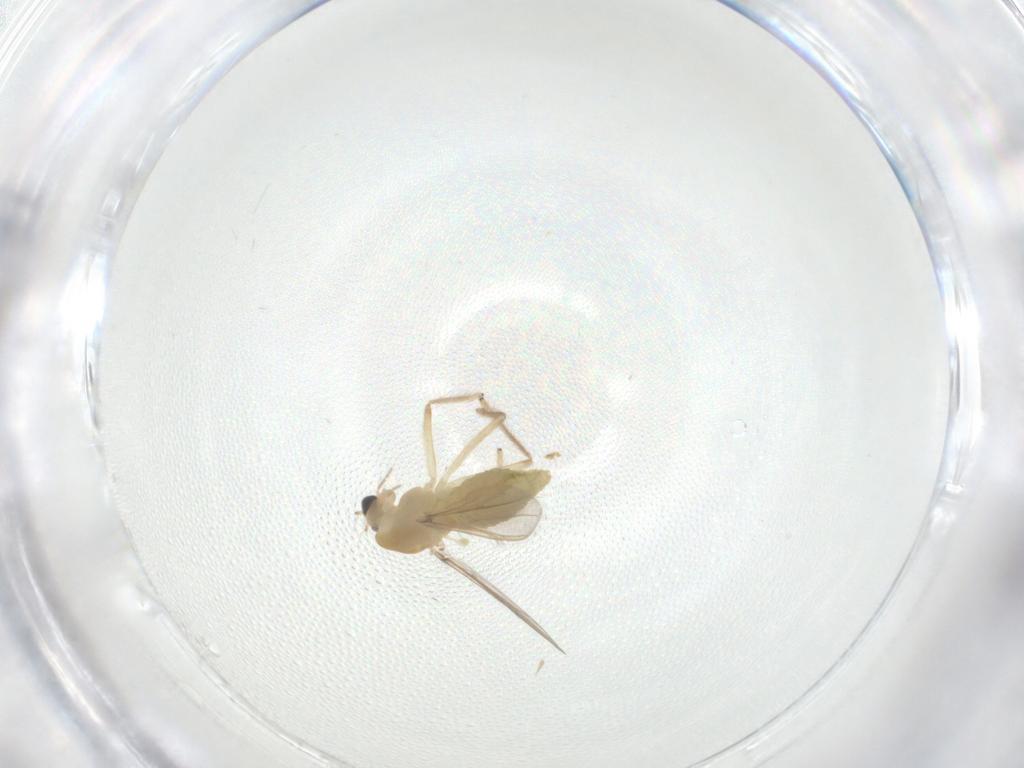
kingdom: Animalia
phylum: Arthropoda
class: Insecta
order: Diptera
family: Chironomidae
